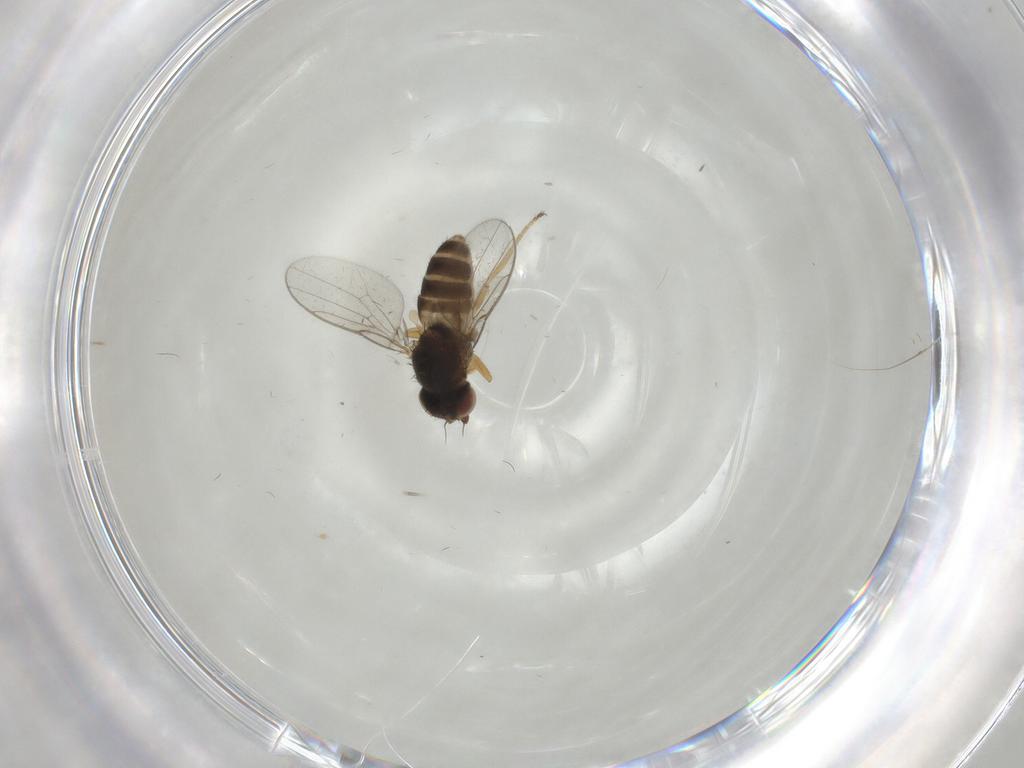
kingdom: Animalia
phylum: Arthropoda
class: Insecta
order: Diptera
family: Chloropidae
